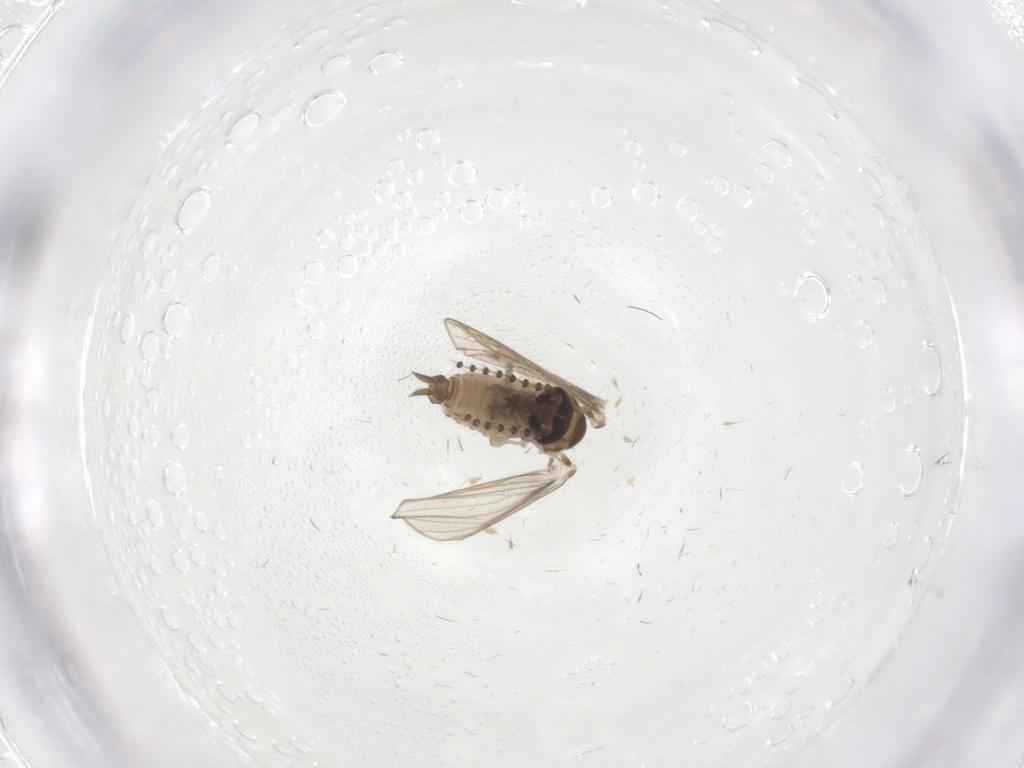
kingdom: Animalia
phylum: Arthropoda
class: Insecta
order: Diptera
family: Psychodidae
